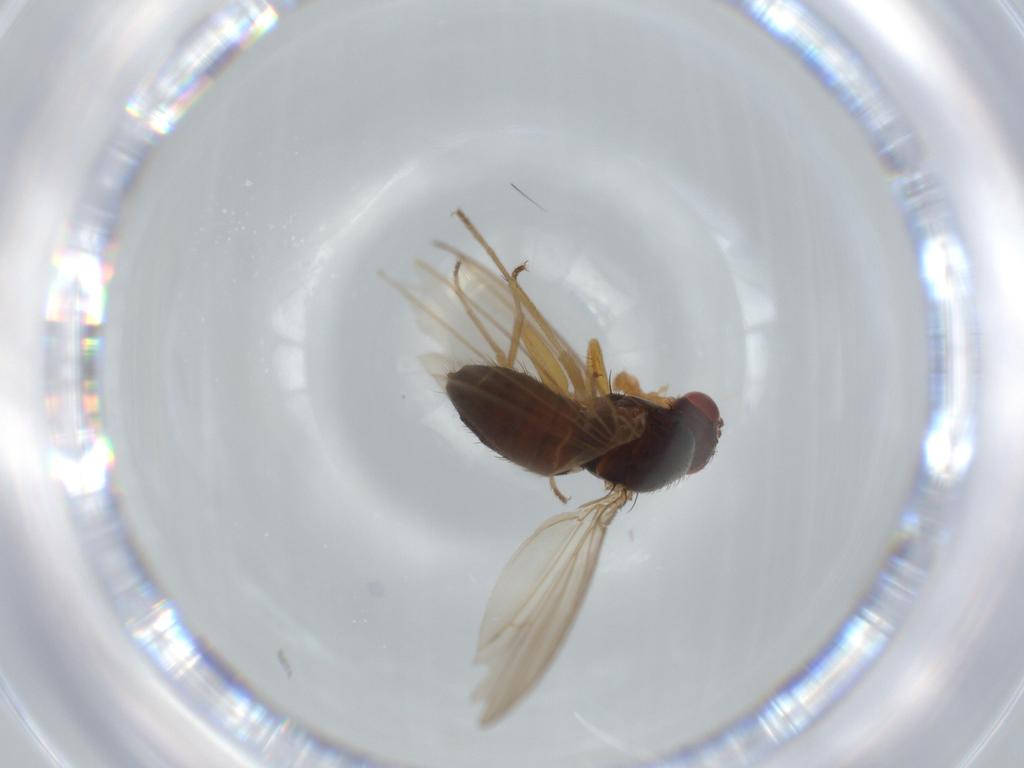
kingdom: Animalia
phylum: Arthropoda
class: Insecta
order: Diptera
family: Drosophilidae
